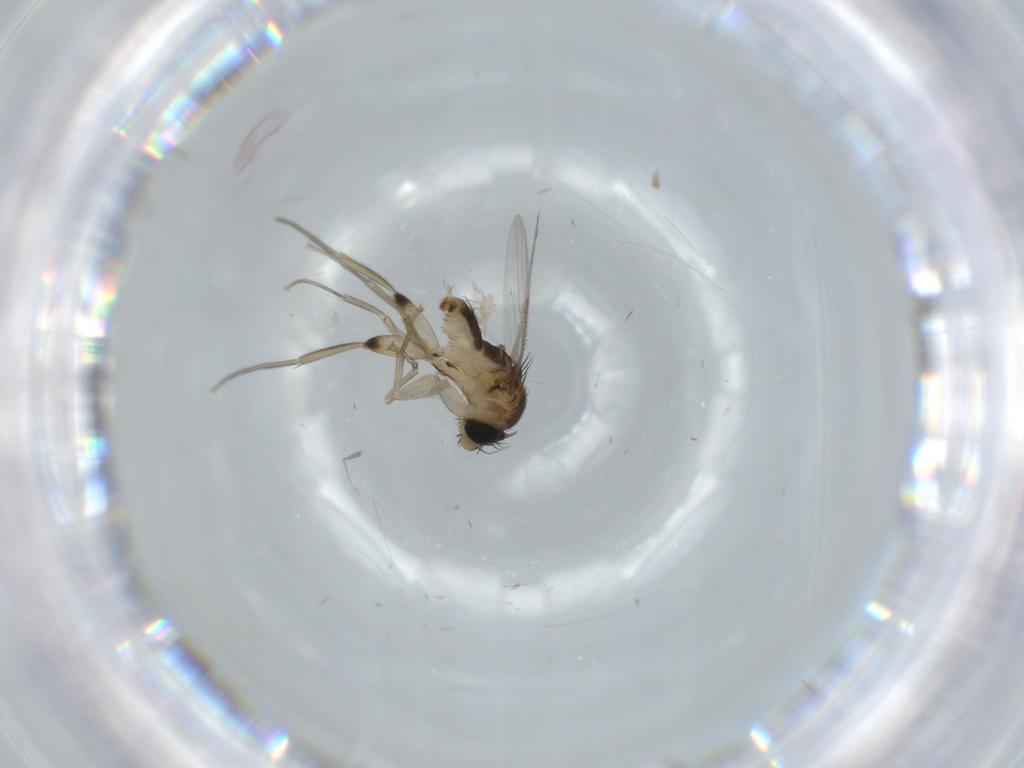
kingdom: Animalia
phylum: Arthropoda
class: Insecta
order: Diptera
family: Phoridae
